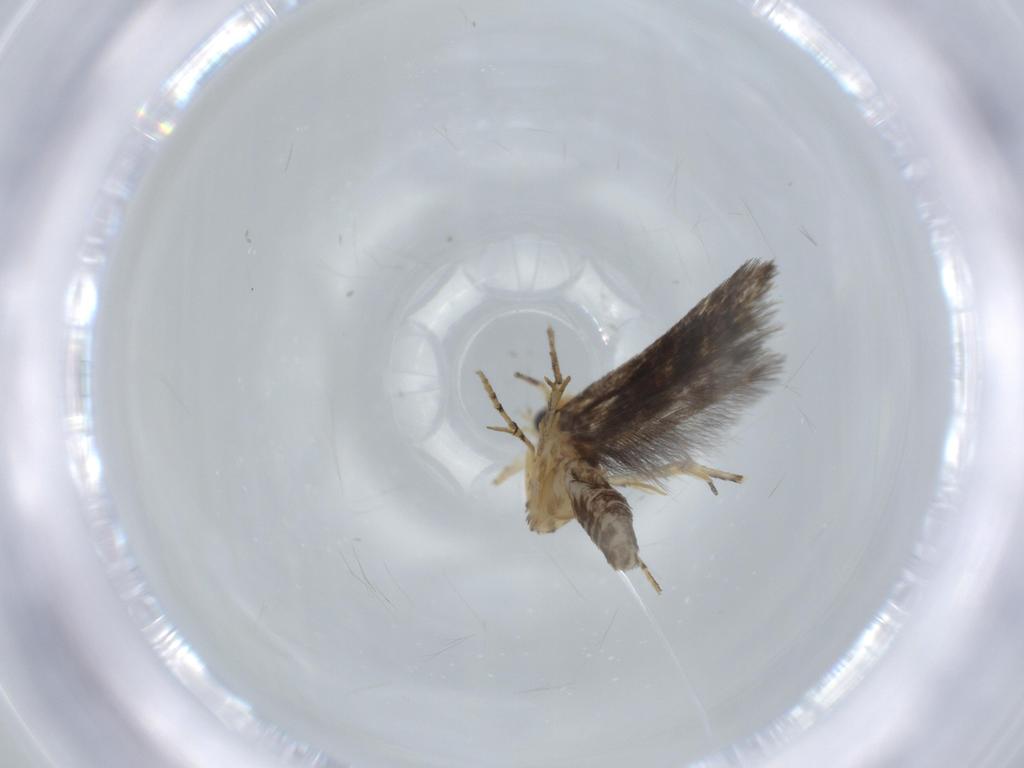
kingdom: Animalia
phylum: Arthropoda
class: Insecta
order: Lepidoptera
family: Argyresthiidae
